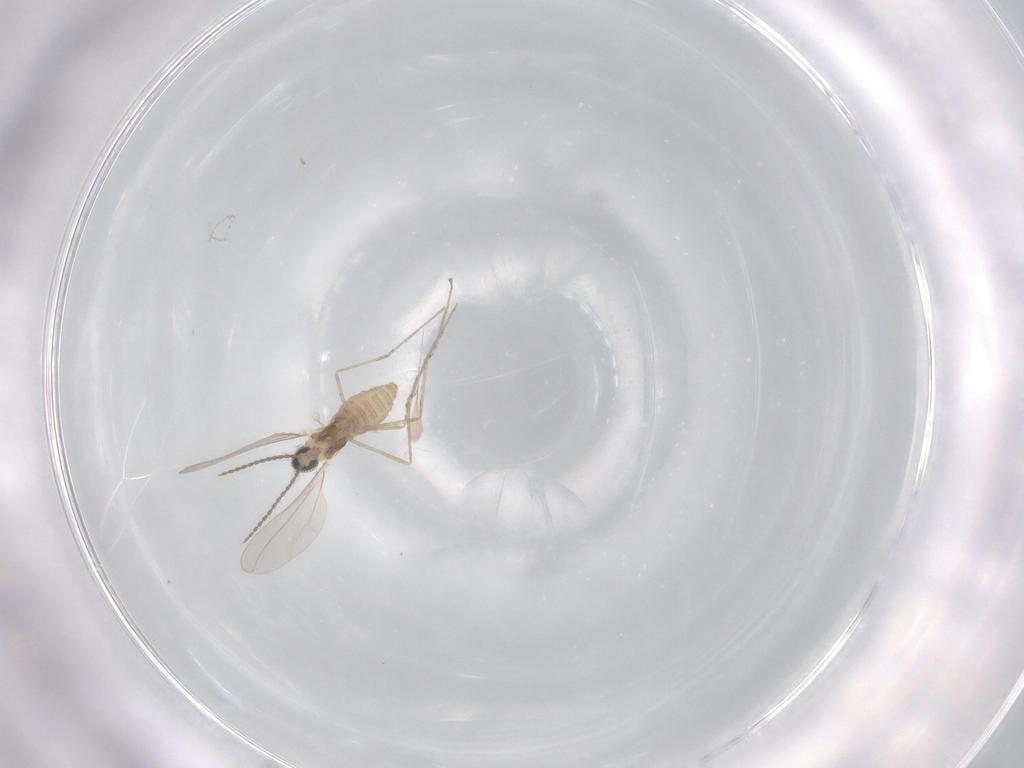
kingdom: Animalia
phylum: Arthropoda
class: Insecta
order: Diptera
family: Cecidomyiidae
